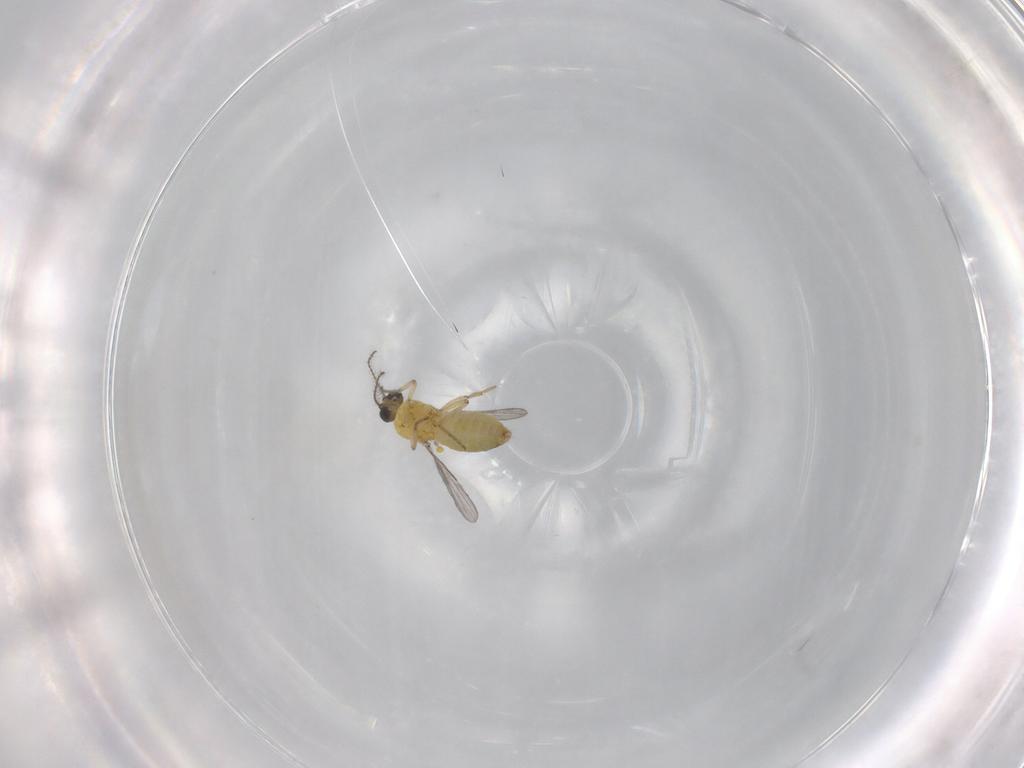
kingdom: Animalia
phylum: Arthropoda
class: Insecta
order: Diptera
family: Ceratopogonidae
